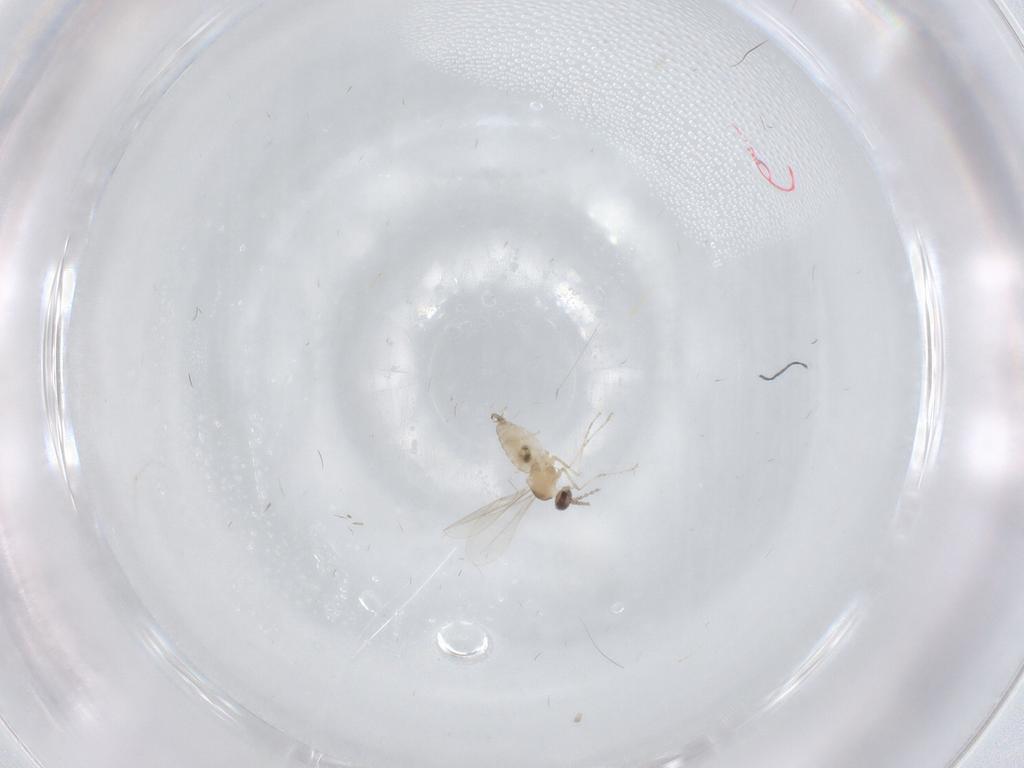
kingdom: Animalia
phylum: Arthropoda
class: Insecta
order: Diptera
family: Cecidomyiidae
